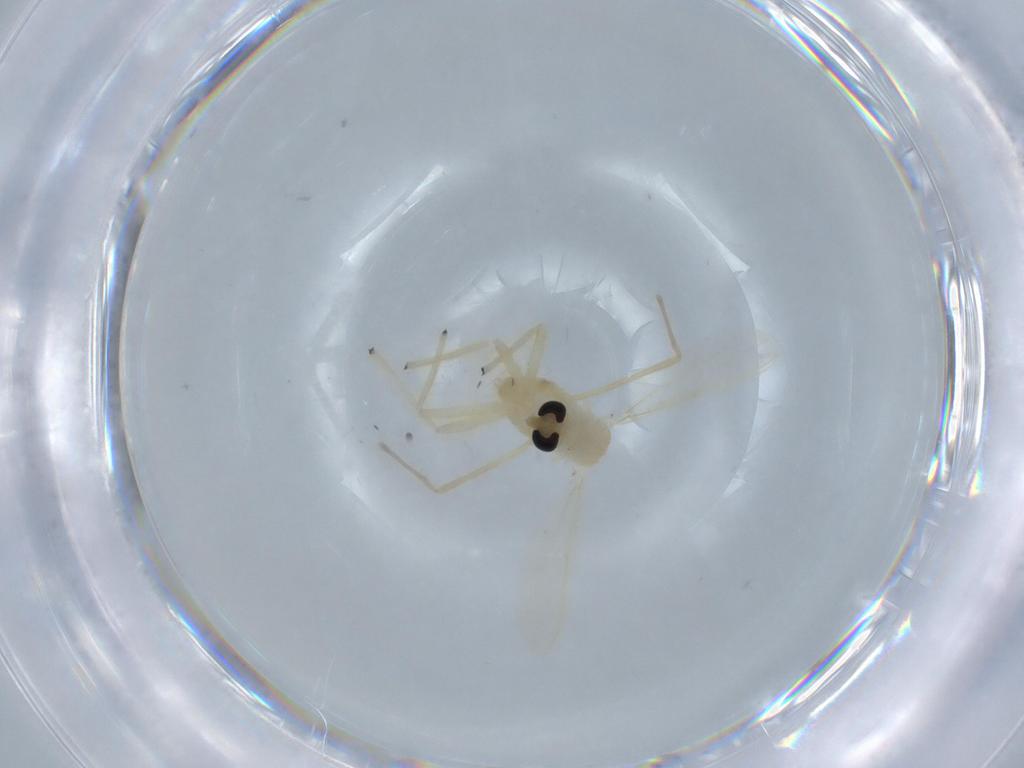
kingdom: Animalia
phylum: Arthropoda
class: Insecta
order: Diptera
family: Chironomidae
